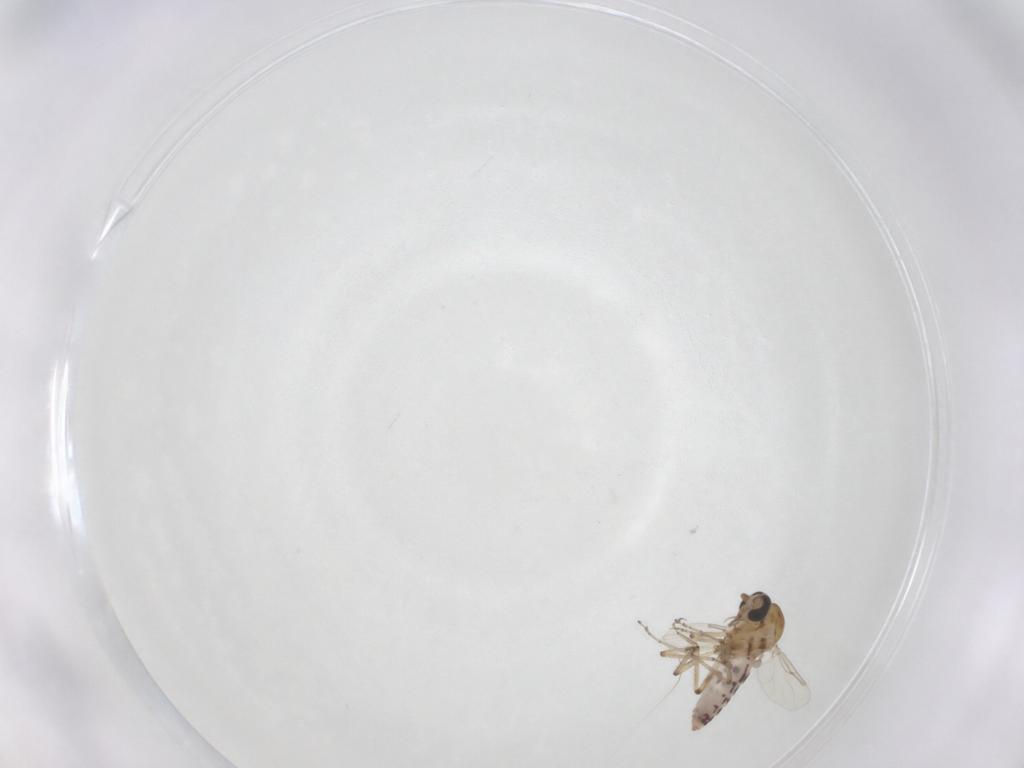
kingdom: Animalia
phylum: Arthropoda
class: Insecta
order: Diptera
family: Ceratopogonidae
